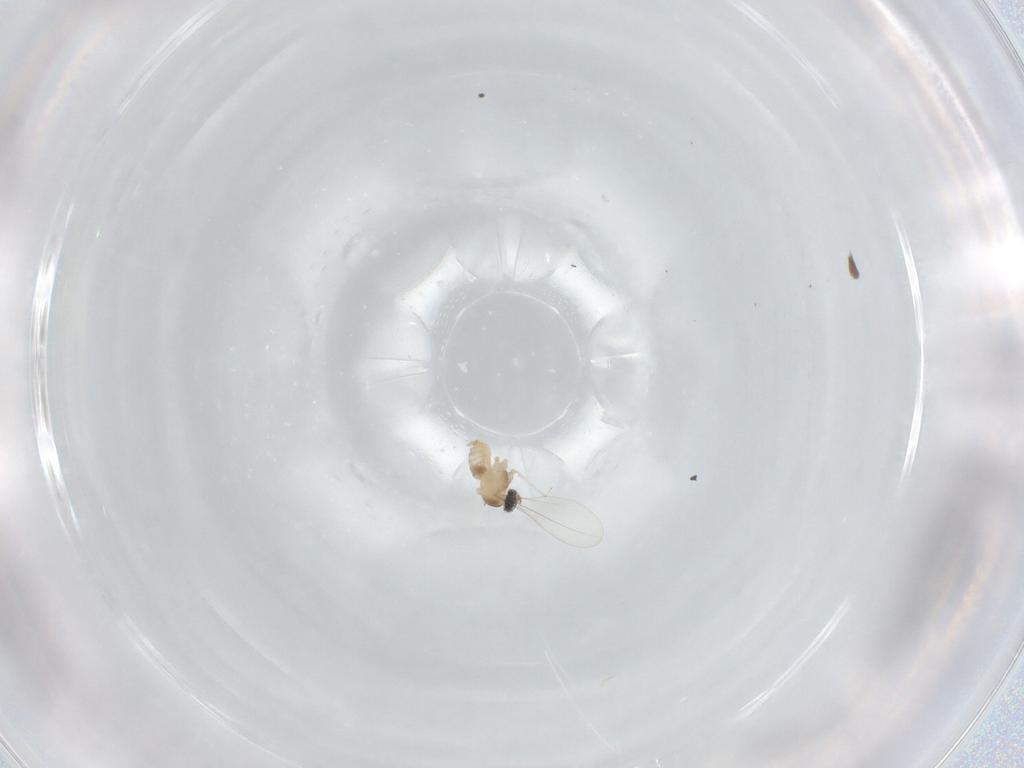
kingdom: Animalia
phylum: Arthropoda
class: Insecta
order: Diptera
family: Cecidomyiidae
